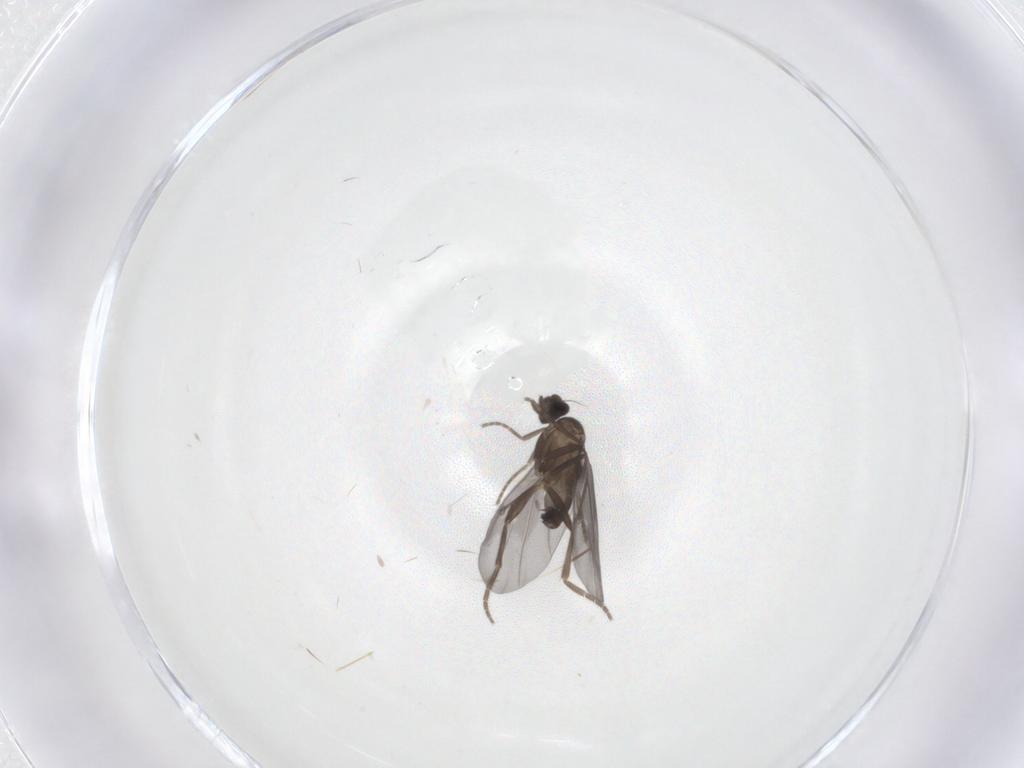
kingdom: Animalia
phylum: Arthropoda
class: Insecta
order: Diptera
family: Phoridae
